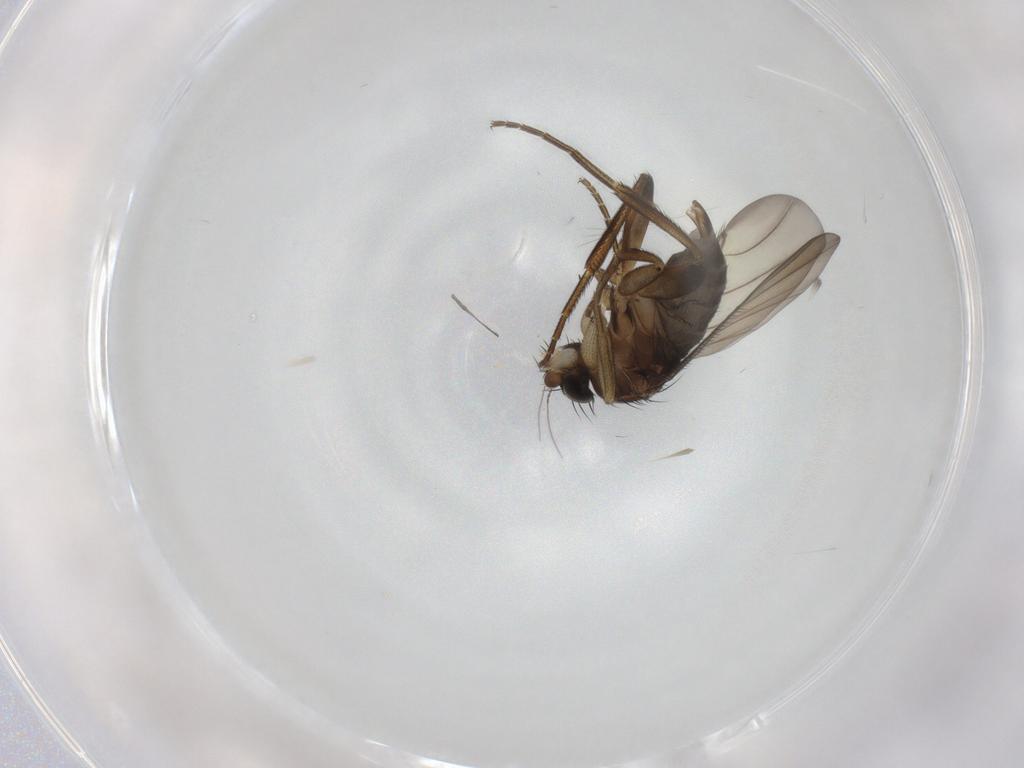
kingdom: Animalia
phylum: Arthropoda
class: Insecta
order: Diptera
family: Phoridae
